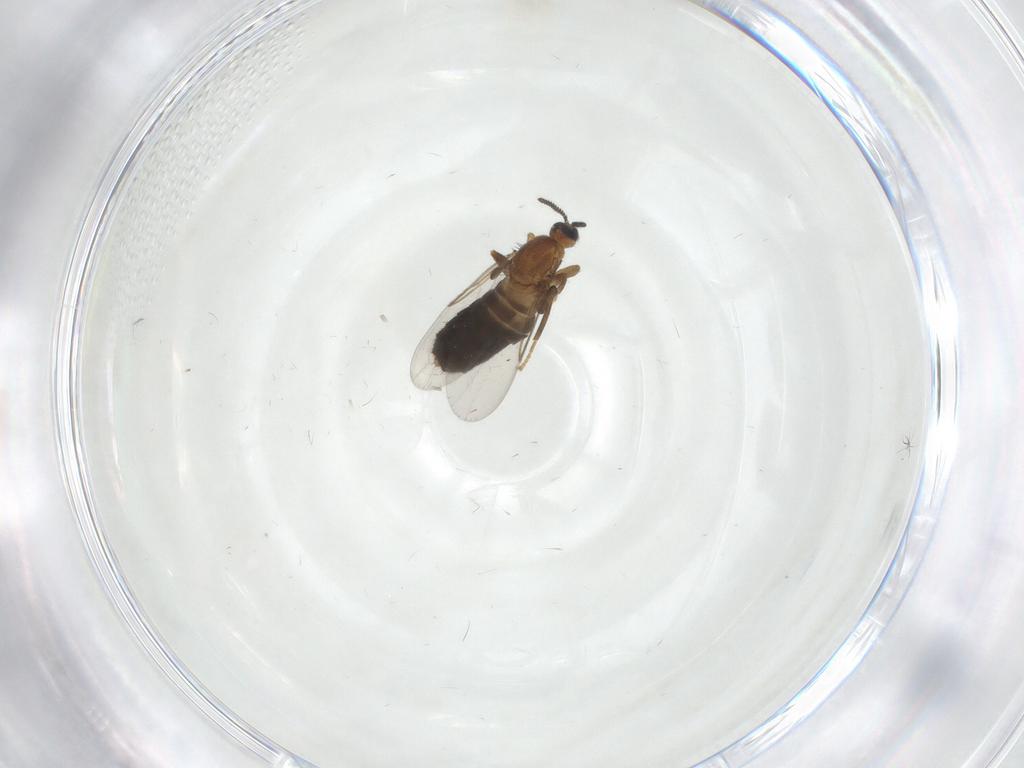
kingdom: Animalia
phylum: Arthropoda
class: Insecta
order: Diptera
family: Scatopsidae
